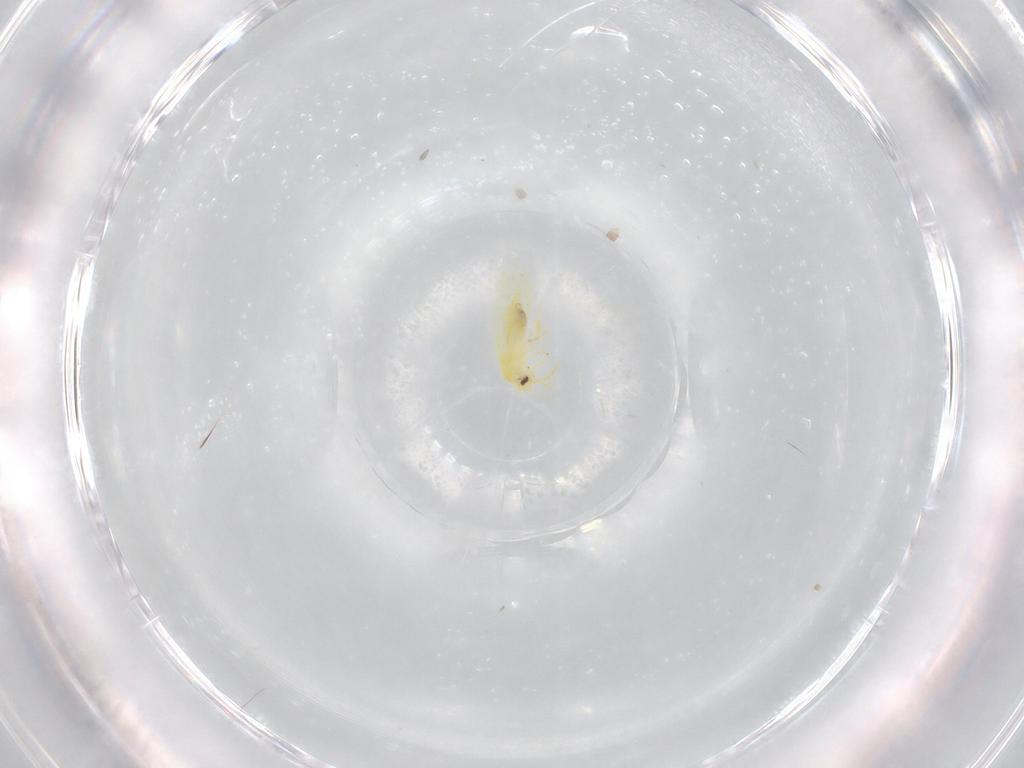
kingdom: Animalia
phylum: Arthropoda
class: Insecta
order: Hemiptera
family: Aleyrodidae
